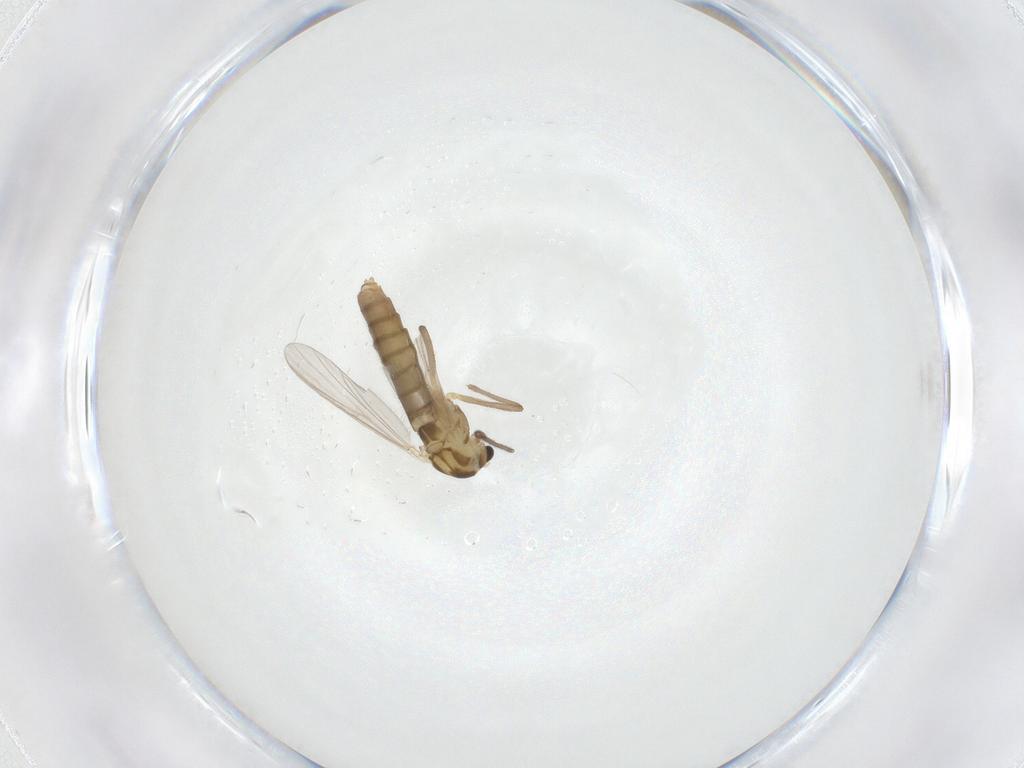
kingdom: Animalia
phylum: Arthropoda
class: Insecta
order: Diptera
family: Chironomidae
